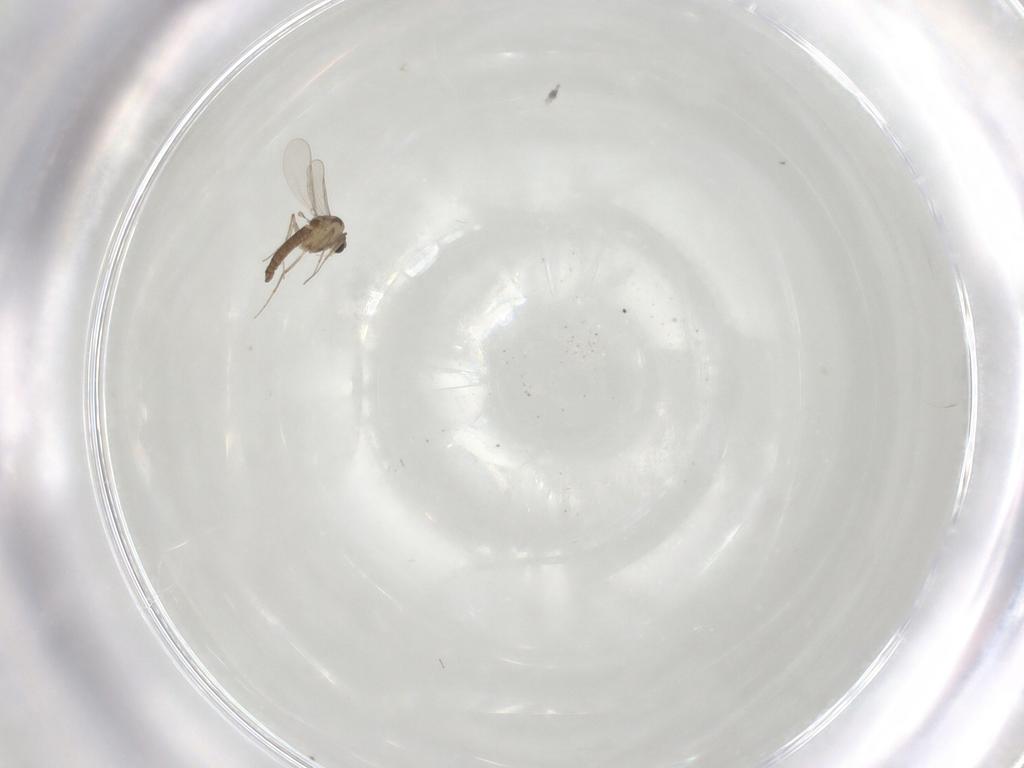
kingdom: Animalia
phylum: Arthropoda
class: Insecta
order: Diptera
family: Chironomidae
